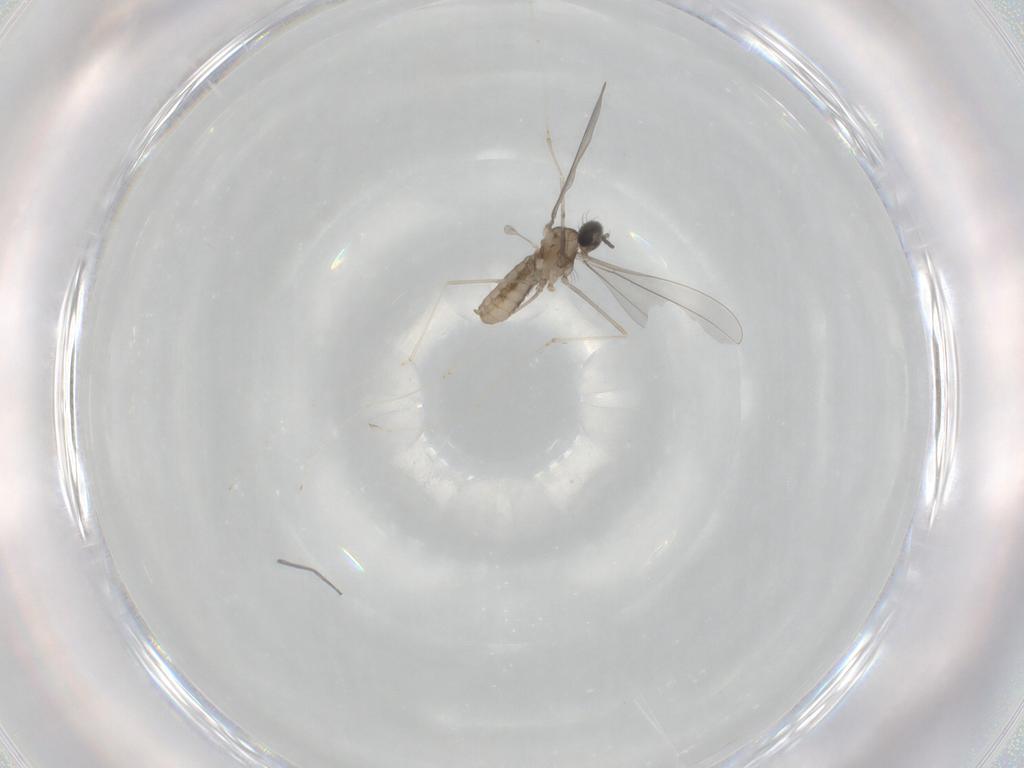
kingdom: Animalia
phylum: Arthropoda
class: Insecta
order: Diptera
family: Cecidomyiidae
